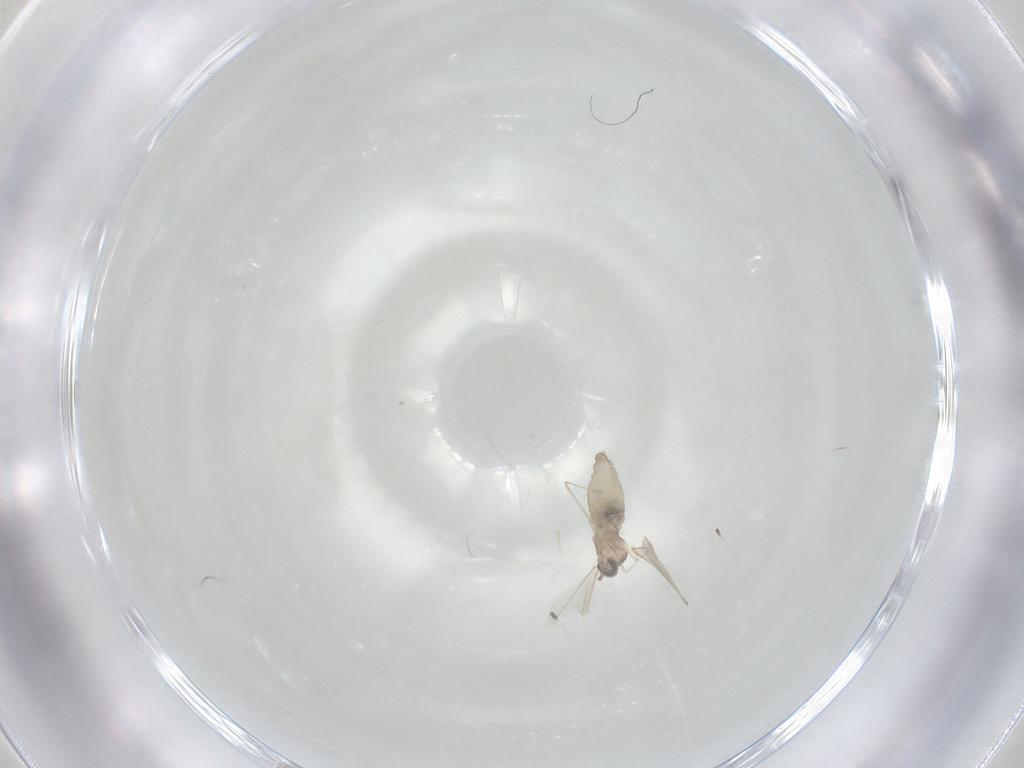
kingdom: Animalia
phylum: Arthropoda
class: Insecta
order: Diptera
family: Cecidomyiidae
